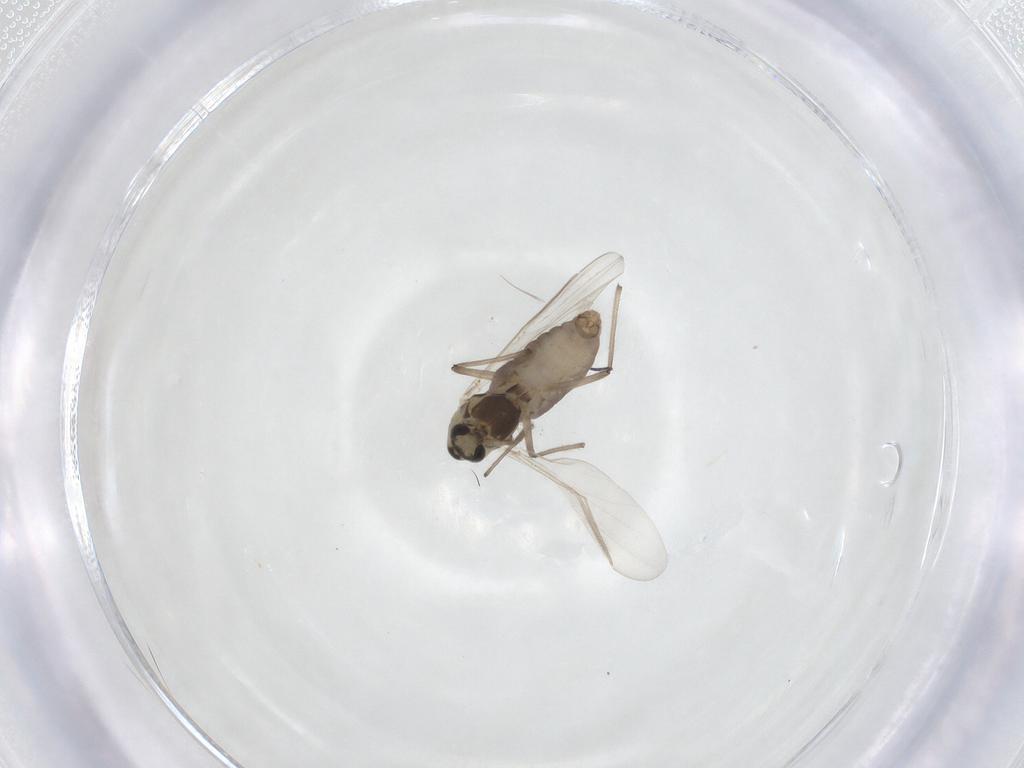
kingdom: Animalia
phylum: Arthropoda
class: Insecta
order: Diptera
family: Chironomidae
